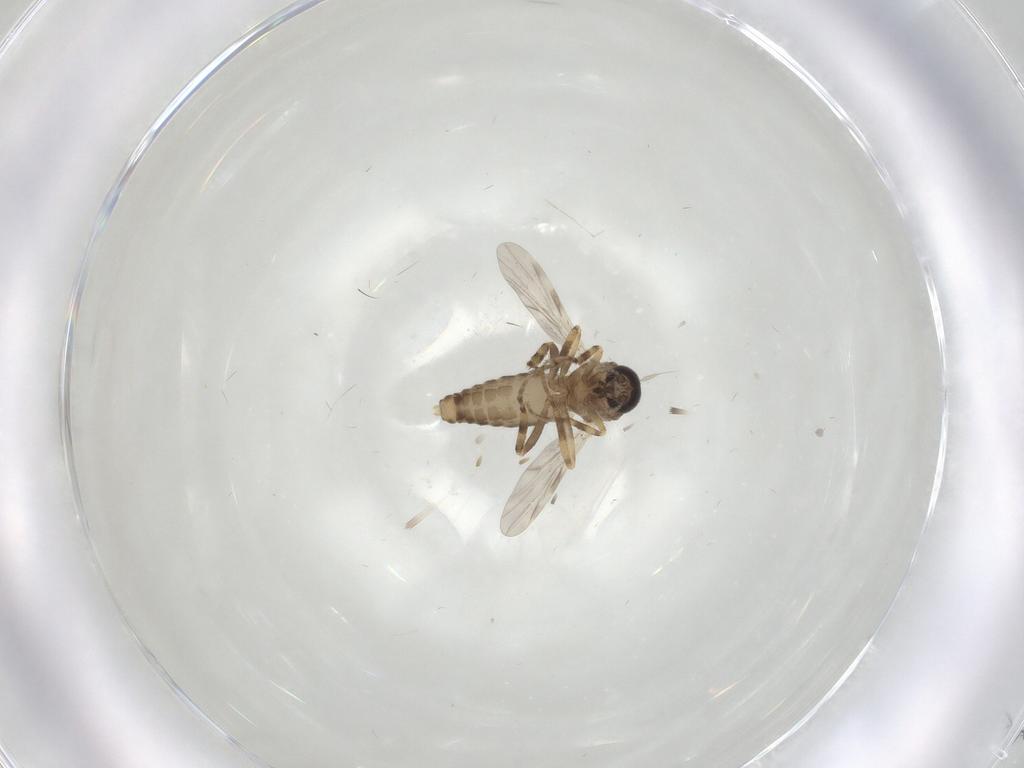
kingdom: Animalia
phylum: Arthropoda
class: Insecta
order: Diptera
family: Ceratopogonidae
